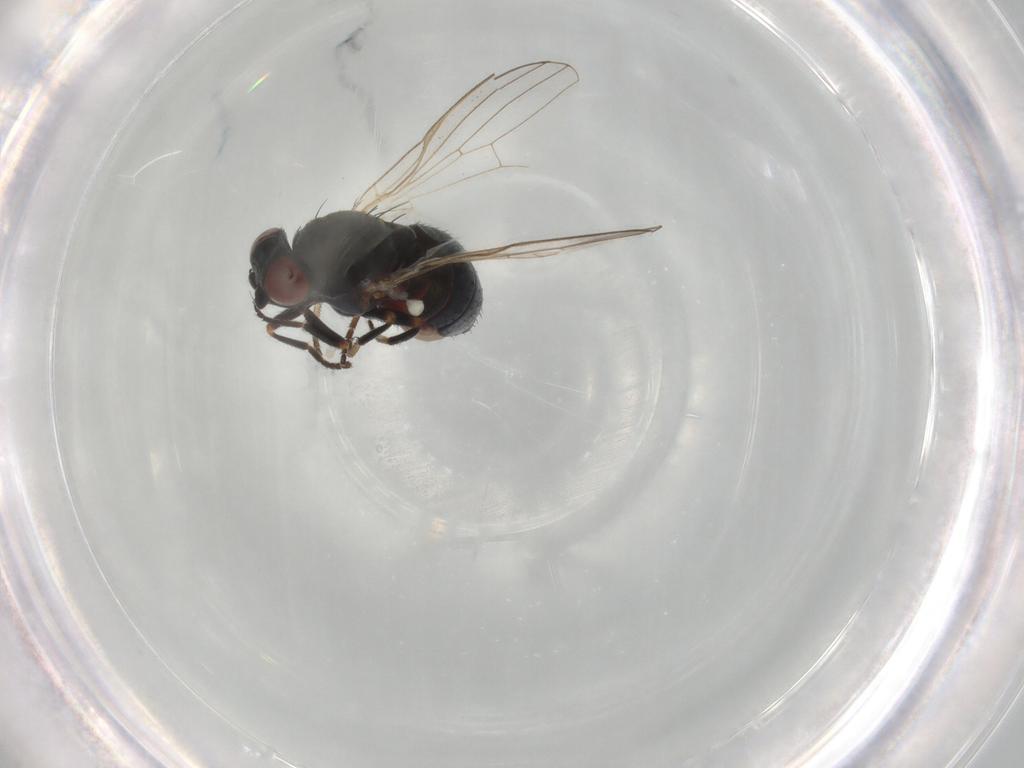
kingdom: Animalia
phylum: Arthropoda
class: Insecta
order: Diptera
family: Chamaemyiidae
